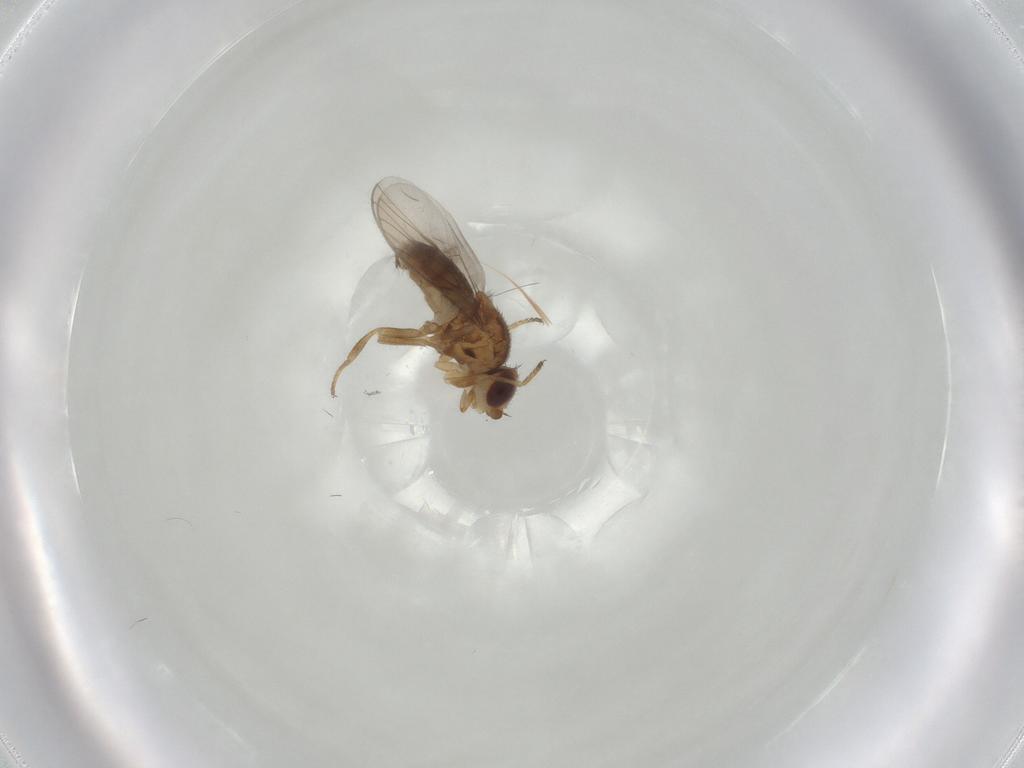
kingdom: Animalia
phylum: Arthropoda
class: Insecta
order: Diptera
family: Chloropidae
